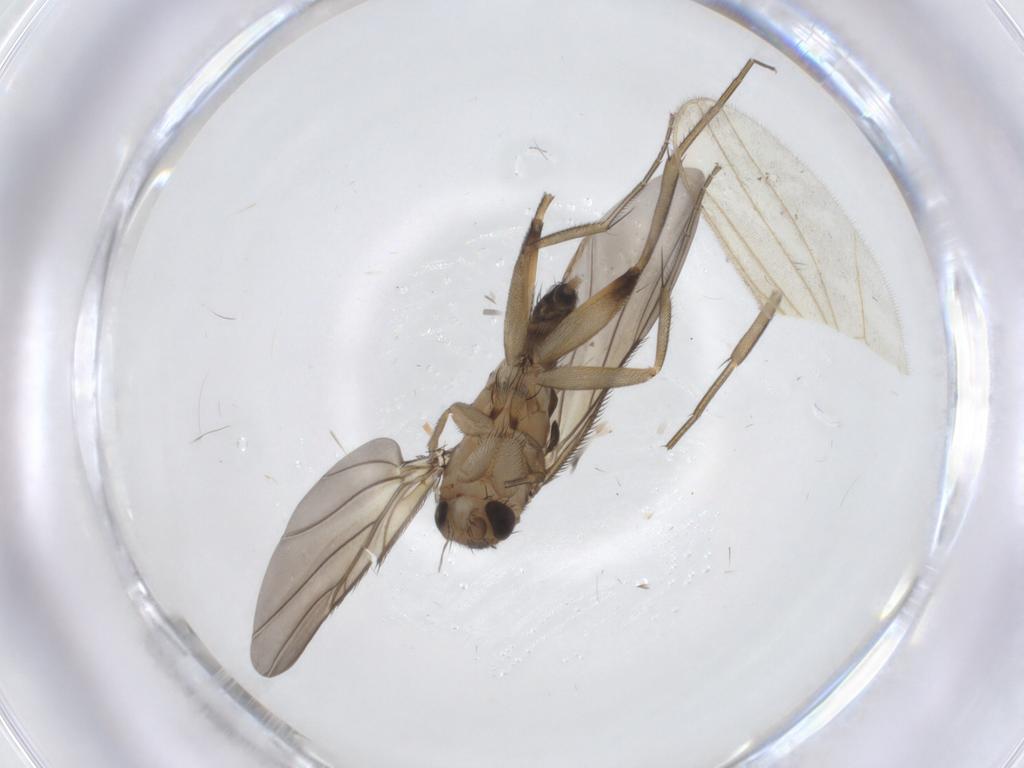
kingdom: Animalia
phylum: Arthropoda
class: Insecta
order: Diptera
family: Phoridae
